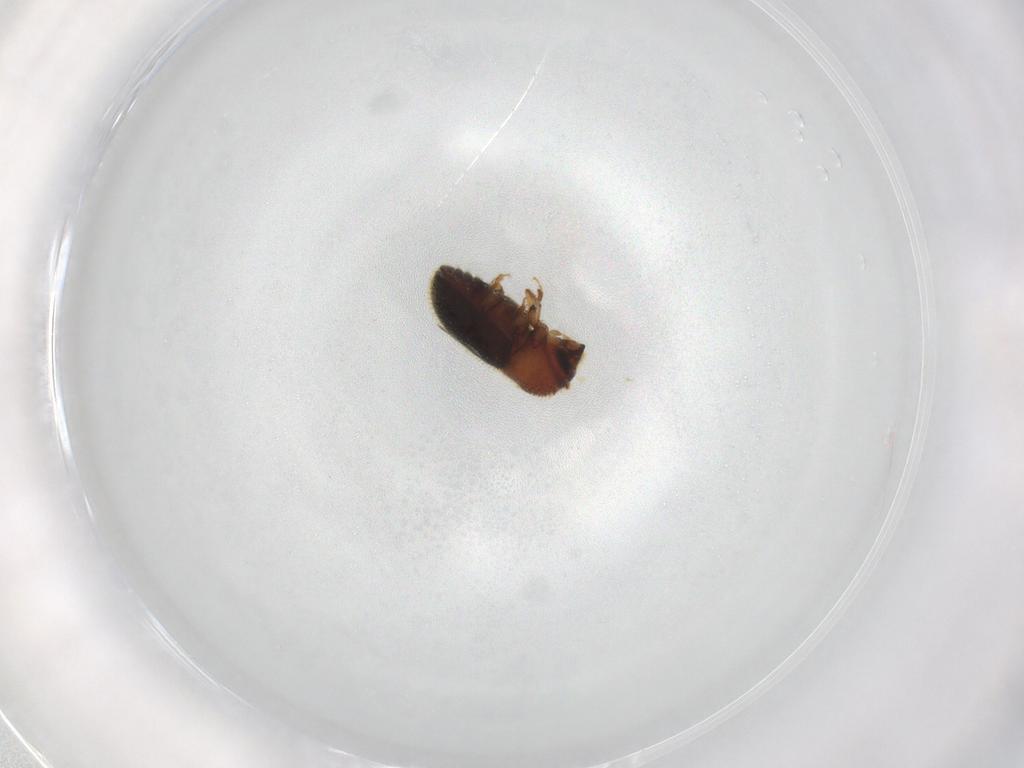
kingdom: Animalia
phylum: Arthropoda
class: Insecta
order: Coleoptera
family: Curculionidae
